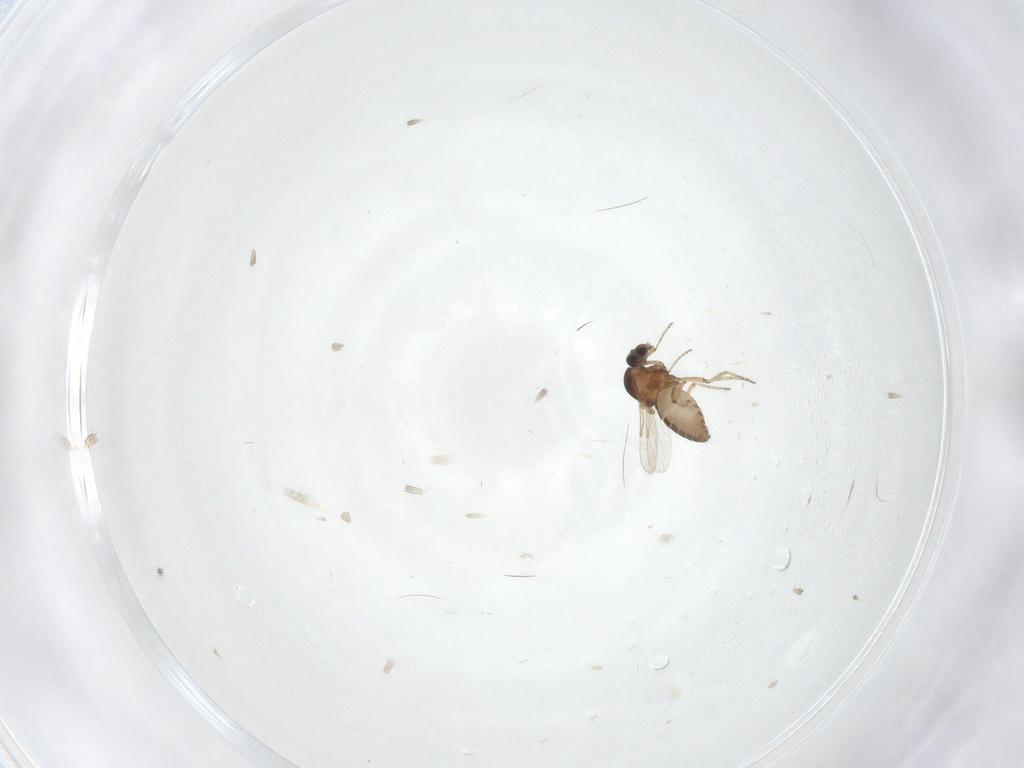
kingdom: Animalia
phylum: Arthropoda
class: Insecta
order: Diptera
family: Ceratopogonidae
